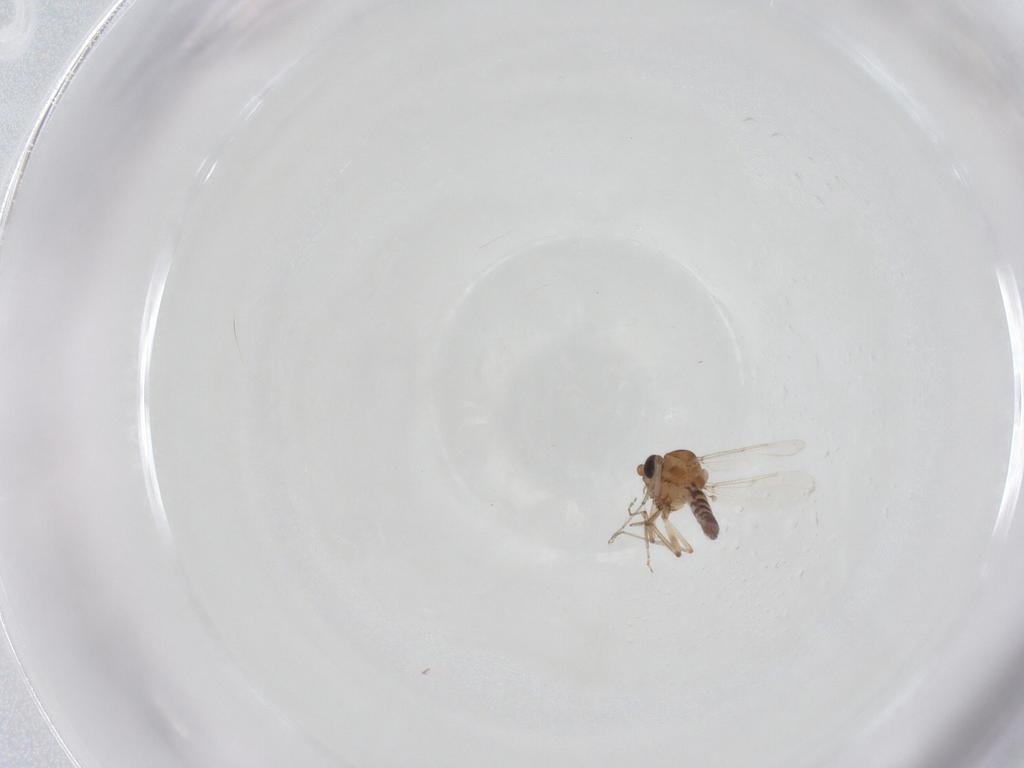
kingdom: Animalia
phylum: Arthropoda
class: Insecta
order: Diptera
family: Ceratopogonidae
